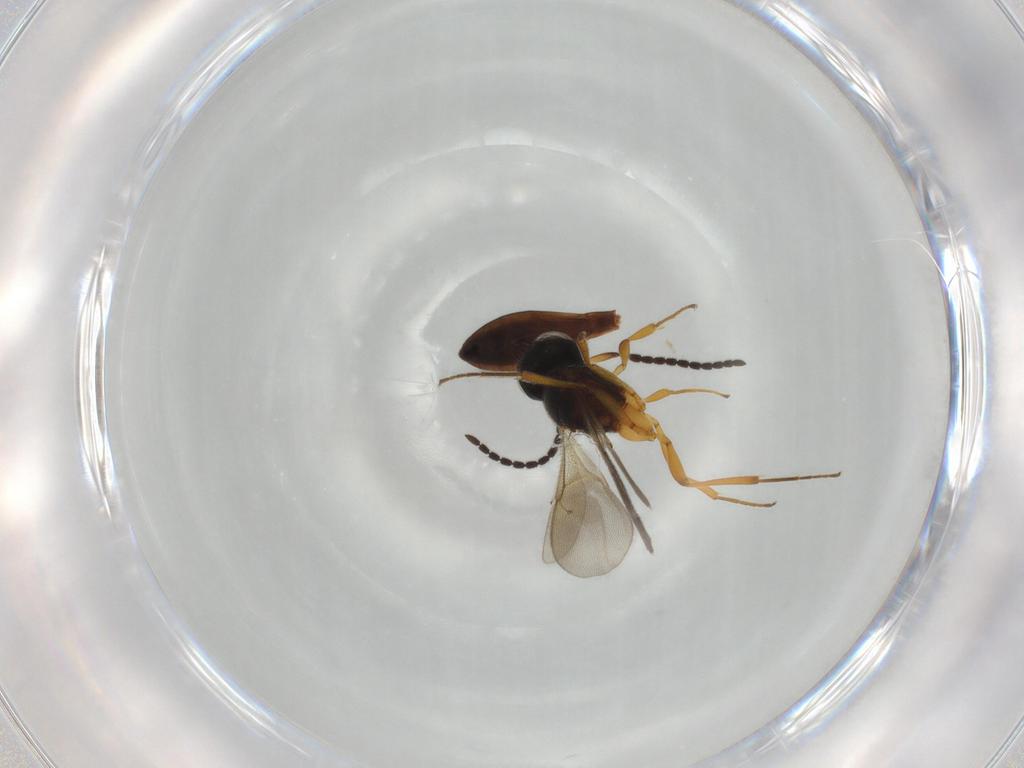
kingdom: Animalia
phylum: Arthropoda
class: Insecta
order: Hymenoptera
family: Scelionidae
